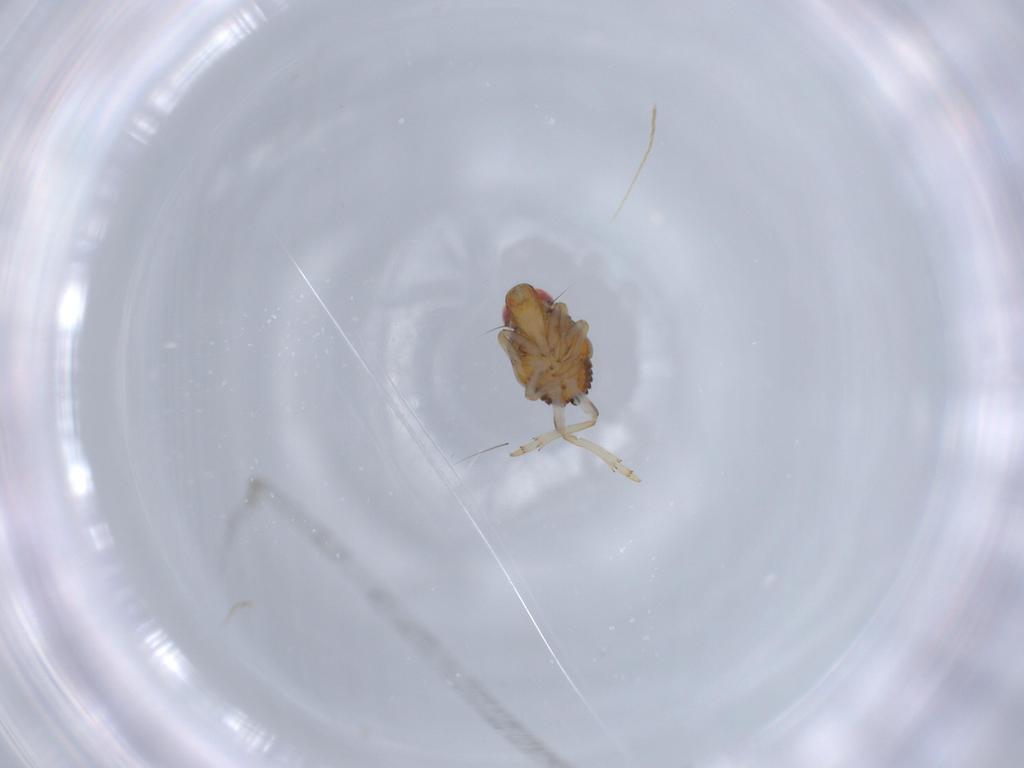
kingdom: Animalia
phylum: Arthropoda
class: Insecta
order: Hemiptera
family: Issidae
